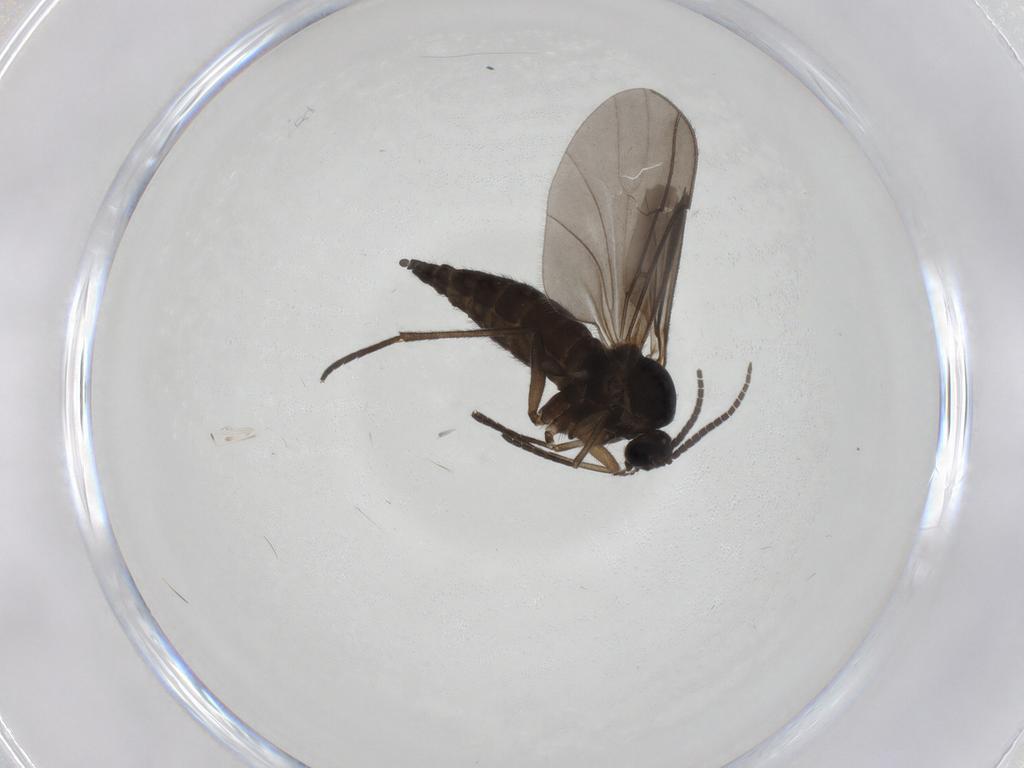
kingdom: Animalia
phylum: Arthropoda
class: Insecta
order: Diptera
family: Sciaridae
